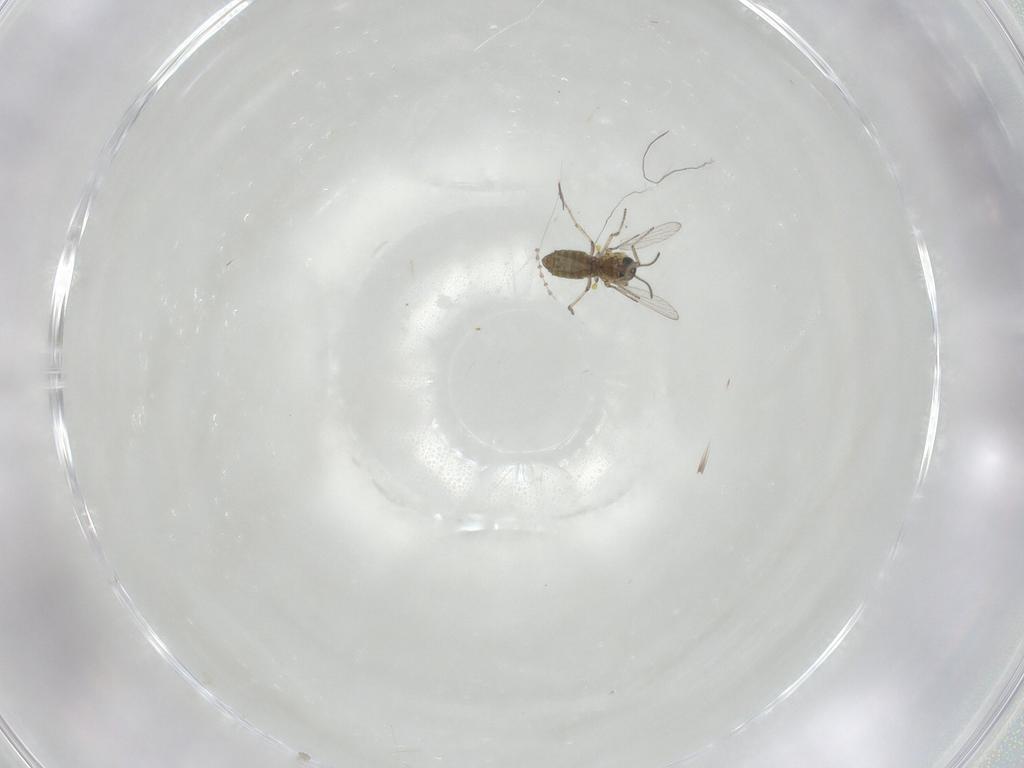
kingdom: Animalia
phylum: Arthropoda
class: Insecta
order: Diptera
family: Ceratopogonidae
